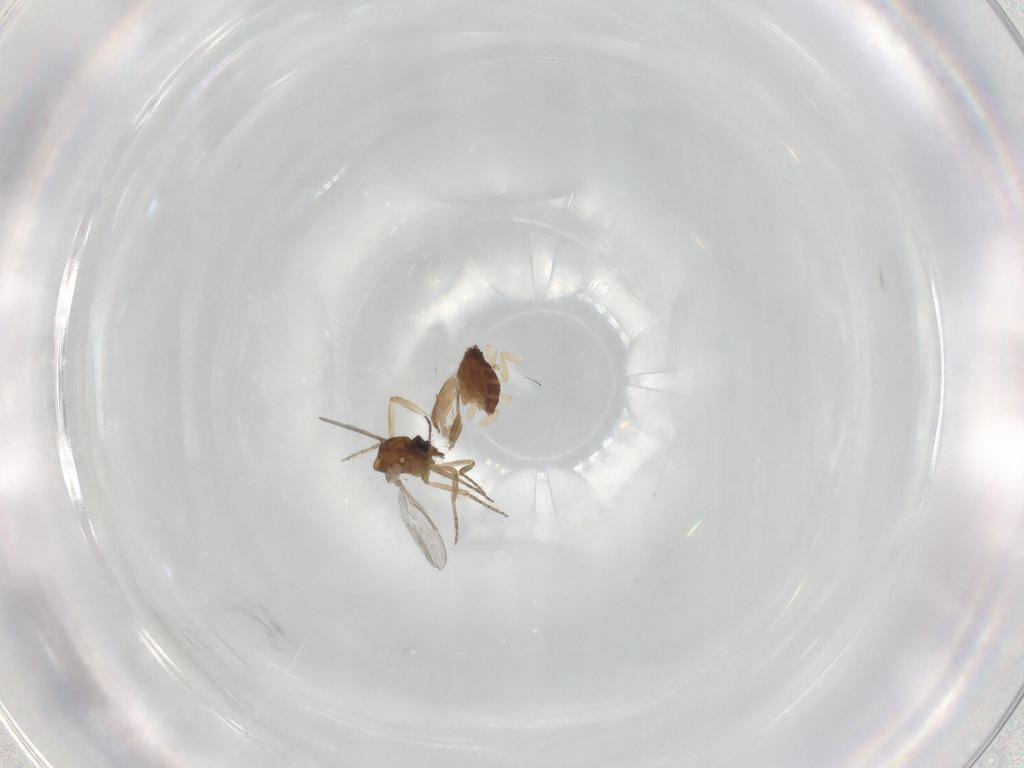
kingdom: Animalia
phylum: Arthropoda
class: Insecta
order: Diptera
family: Ceratopogonidae
